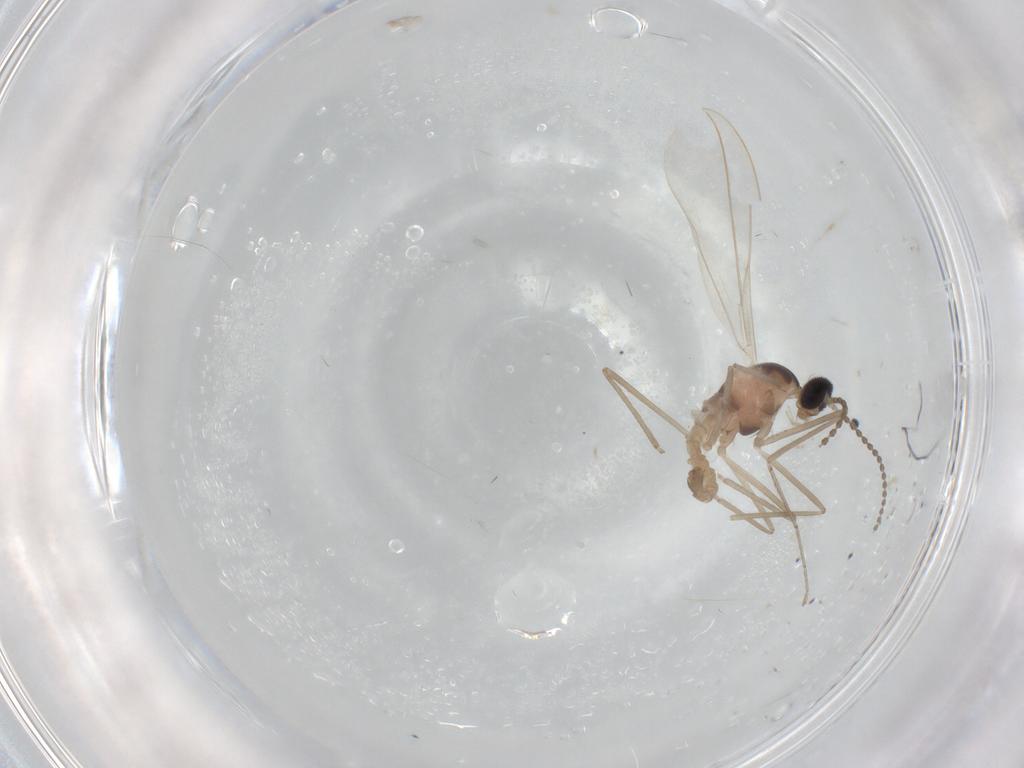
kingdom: Animalia
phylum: Arthropoda
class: Insecta
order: Diptera
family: Cecidomyiidae
